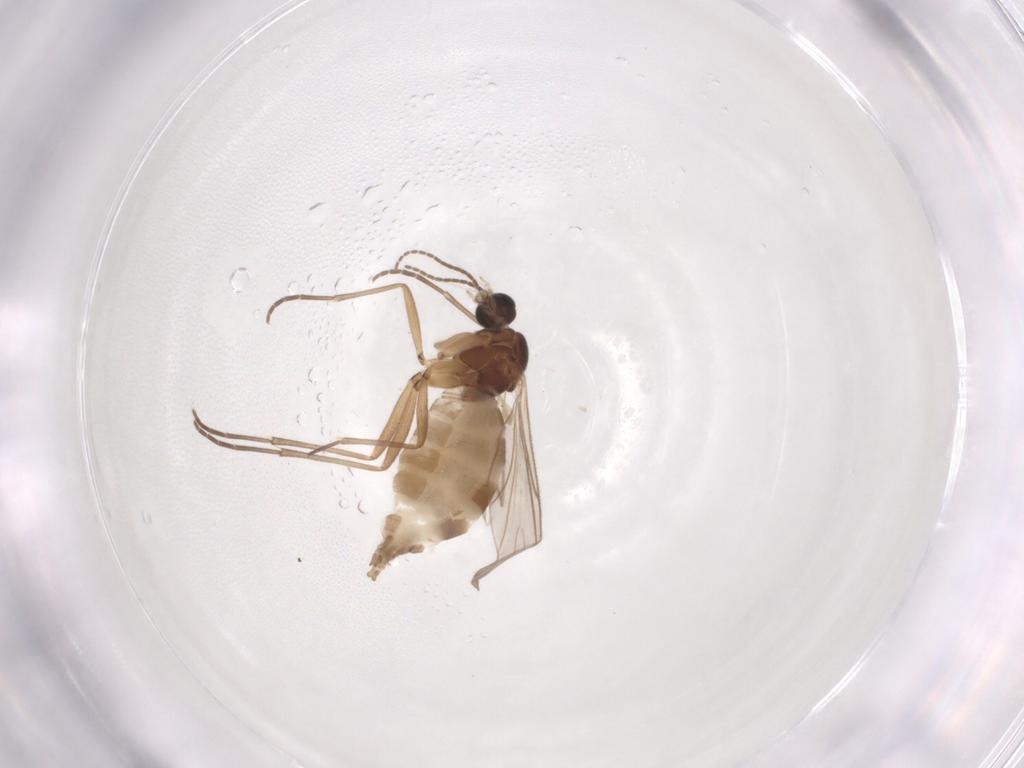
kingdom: Animalia
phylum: Arthropoda
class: Insecta
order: Diptera
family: Sciaridae
